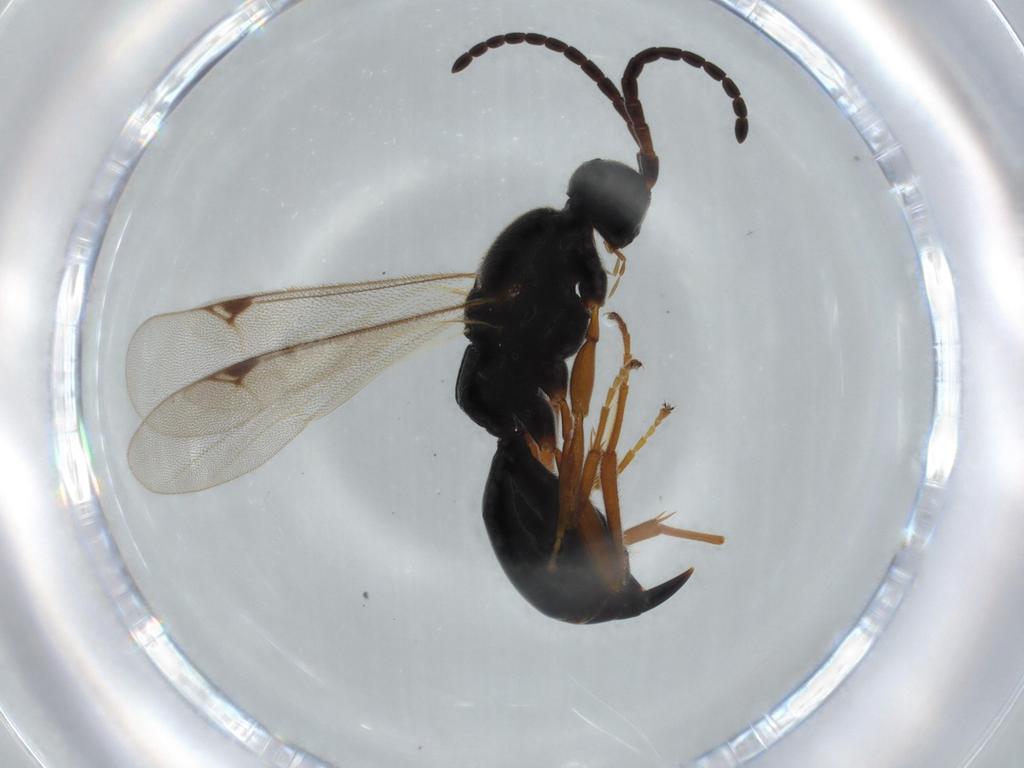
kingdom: Animalia
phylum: Arthropoda
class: Insecta
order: Hymenoptera
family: Proctotrupidae
